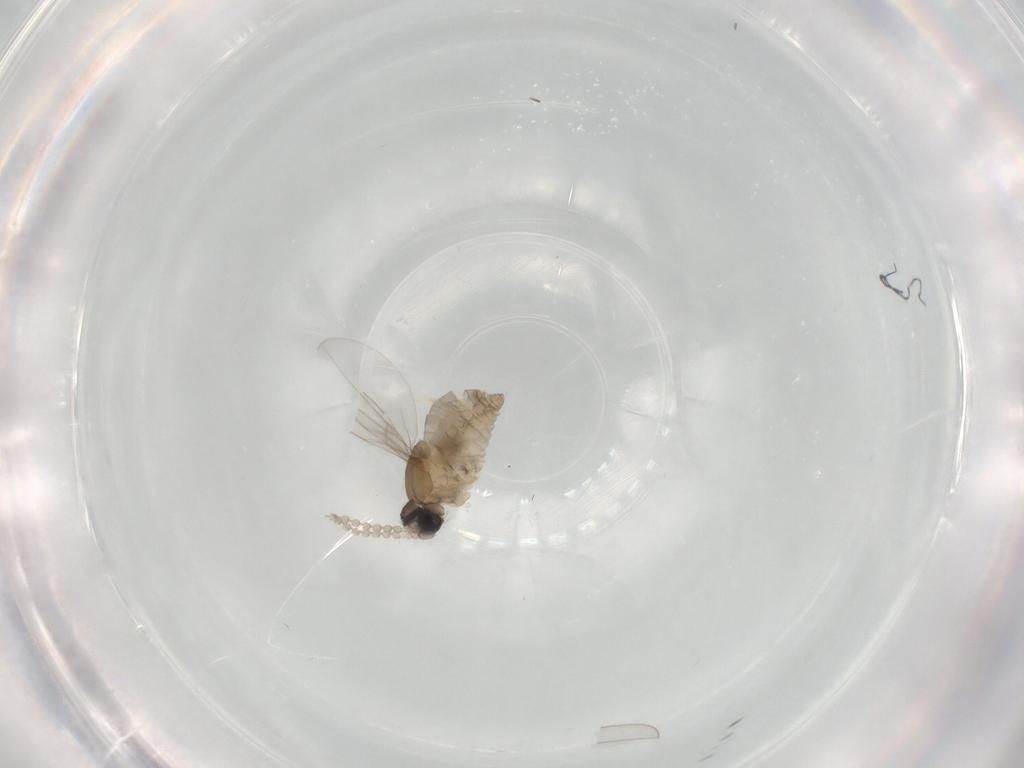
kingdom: Animalia
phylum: Arthropoda
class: Insecta
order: Diptera
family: Cecidomyiidae
